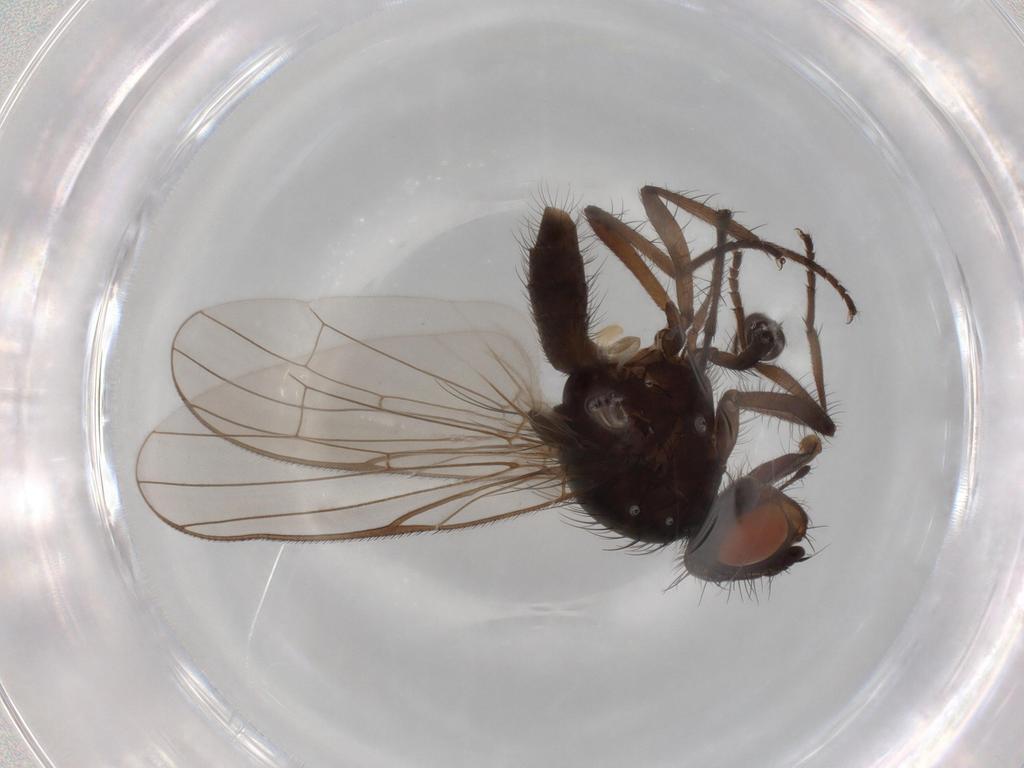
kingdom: Animalia
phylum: Arthropoda
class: Insecta
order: Diptera
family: Anthomyiidae
